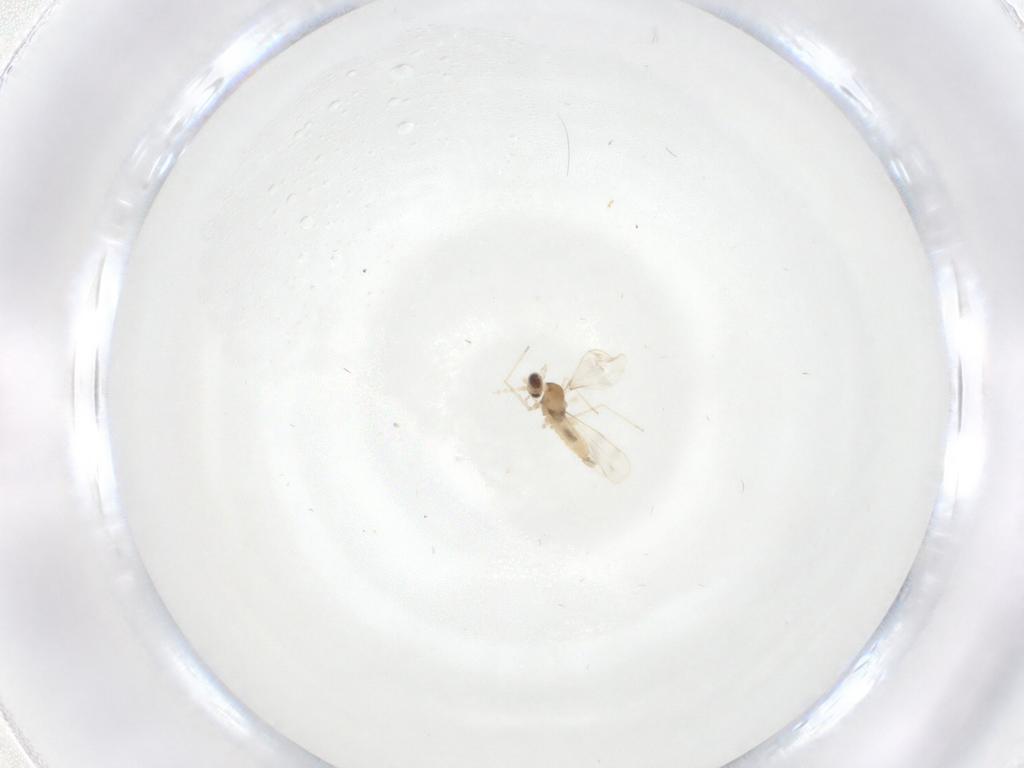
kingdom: Animalia
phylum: Arthropoda
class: Insecta
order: Diptera
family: Cecidomyiidae
